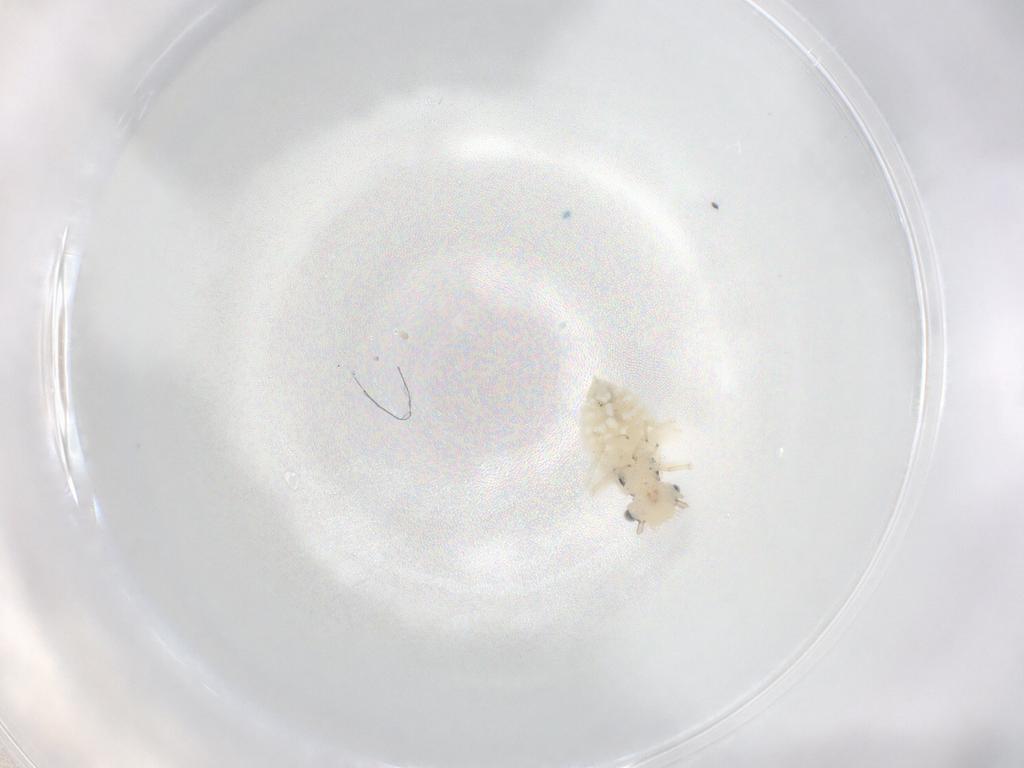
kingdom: Animalia
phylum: Arthropoda
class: Insecta
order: Psocodea
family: Caeciliusidae
